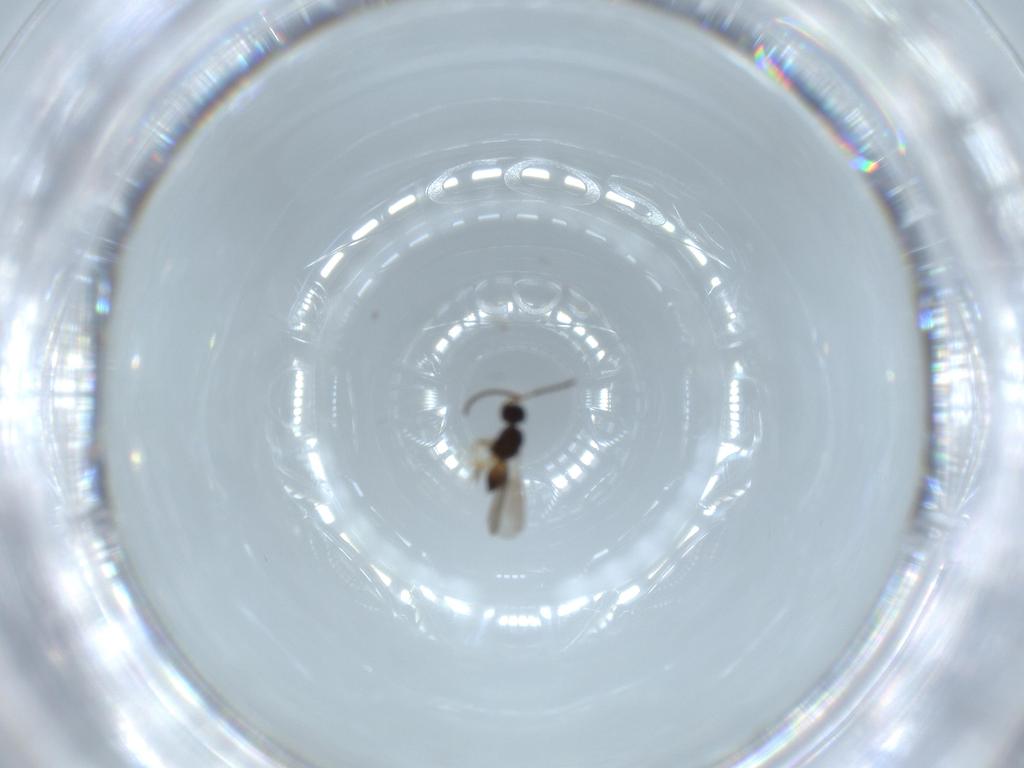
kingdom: Animalia
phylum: Arthropoda
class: Insecta
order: Hymenoptera
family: Ceraphronidae
